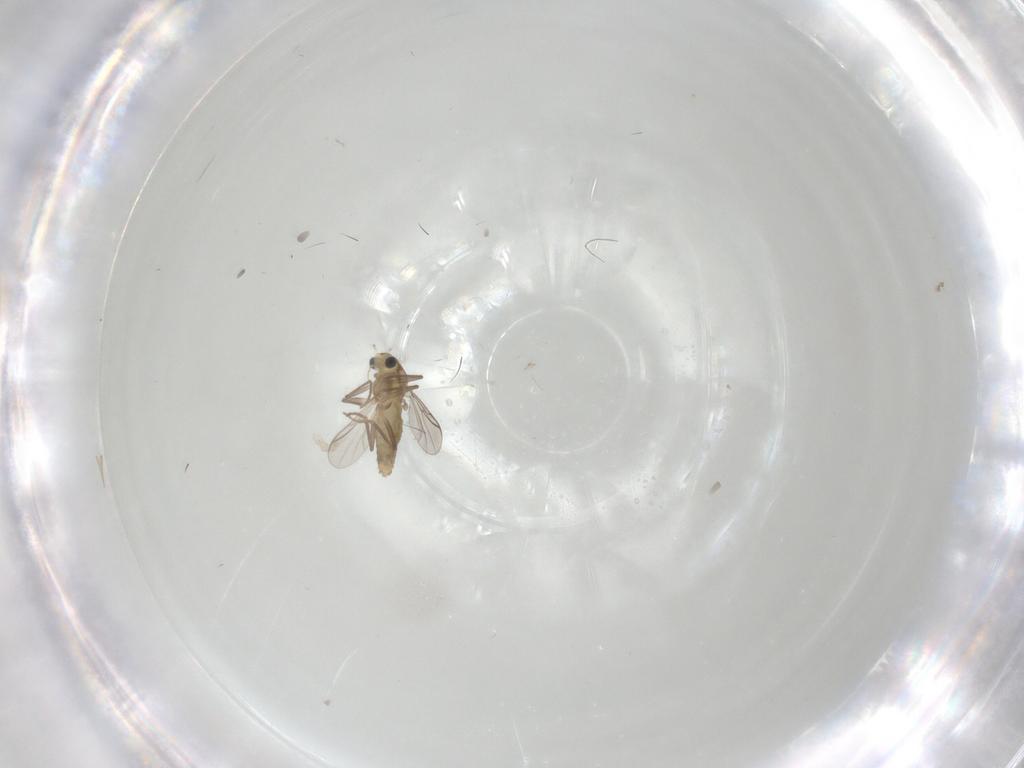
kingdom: Animalia
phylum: Arthropoda
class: Insecta
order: Diptera
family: Chironomidae
